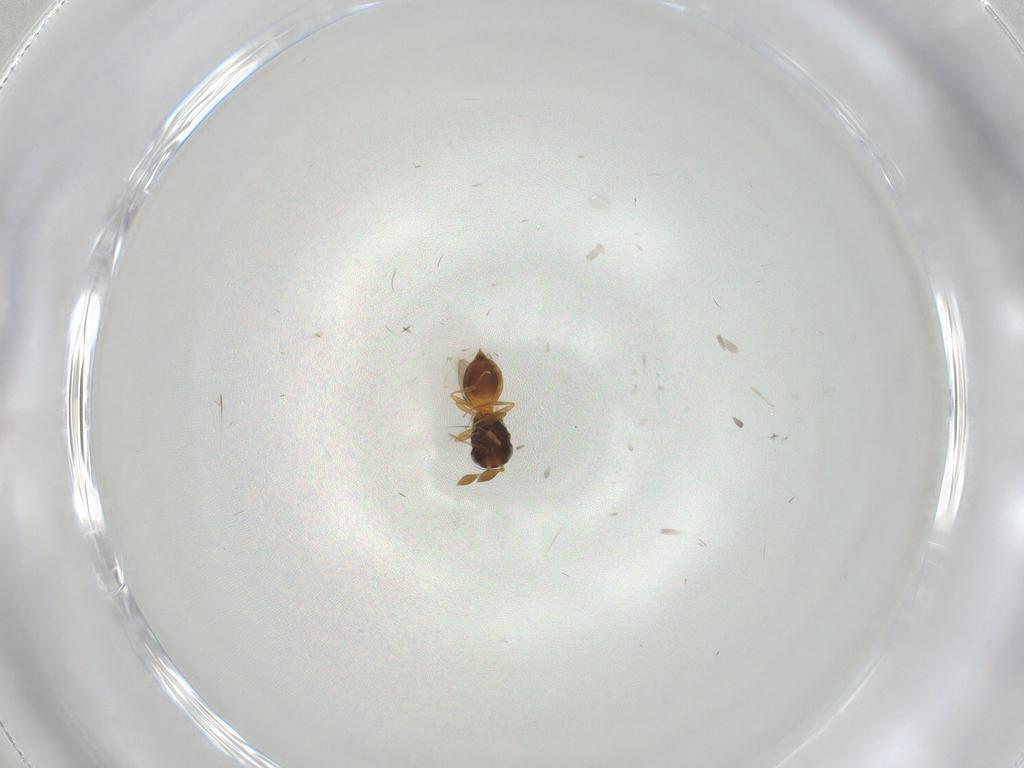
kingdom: Animalia
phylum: Arthropoda
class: Insecta
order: Hymenoptera
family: Scelionidae
